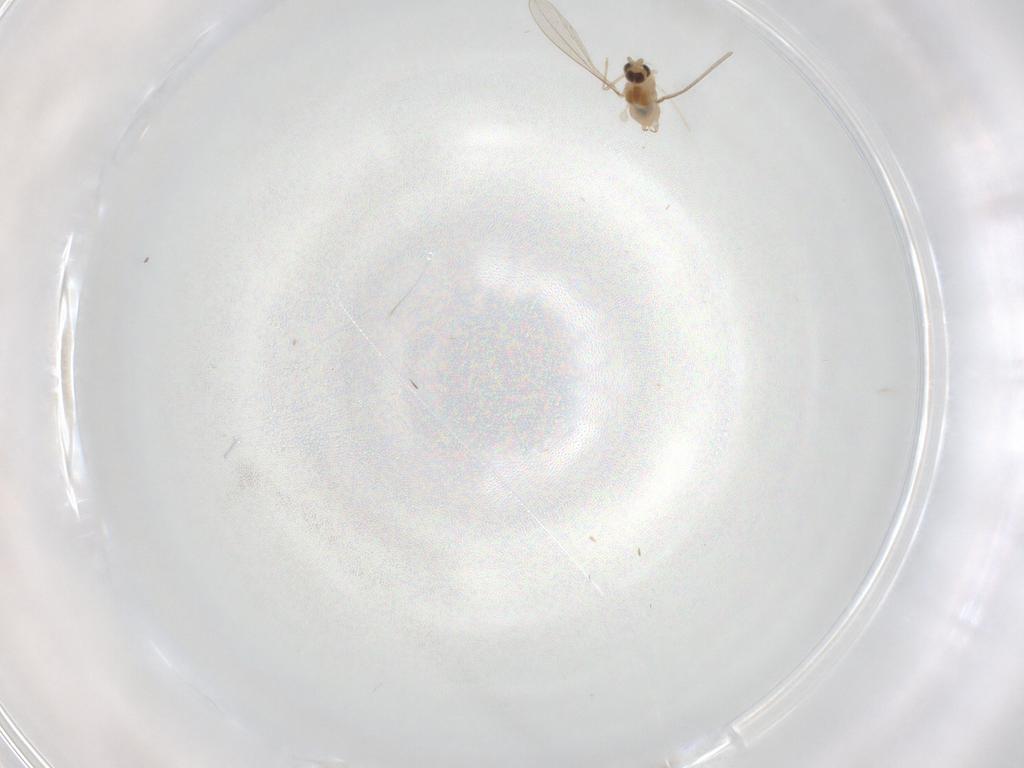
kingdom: Animalia
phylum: Arthropoda
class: Insecta
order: Diptera
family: Cecidomyiidae
